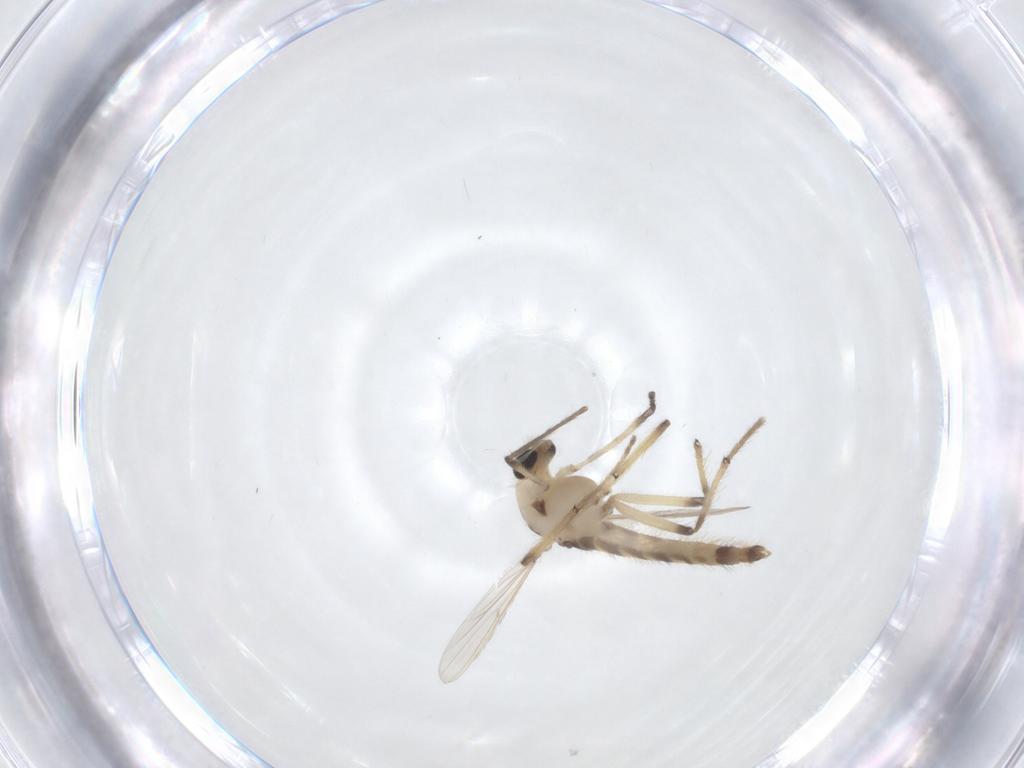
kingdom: Animalia
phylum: Arthropoda
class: Insecta
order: Diptera
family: Chironomidae
